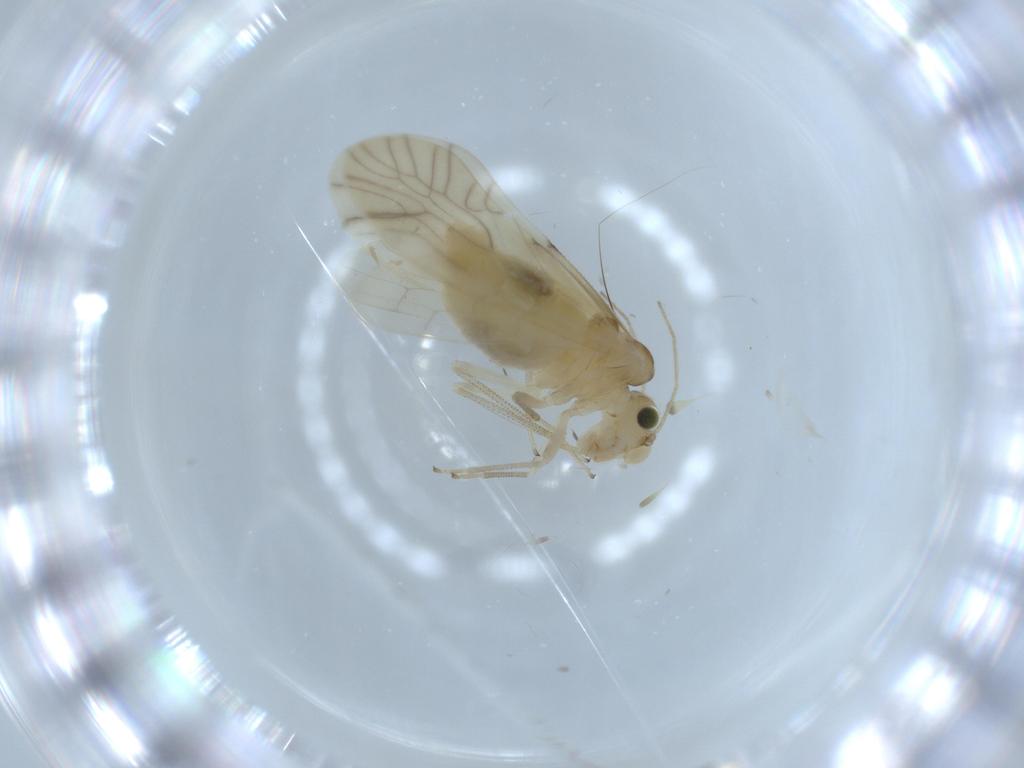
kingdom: Animalia
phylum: Arthropoda
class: Insecta
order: Psocodea
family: Caeciliusidae
